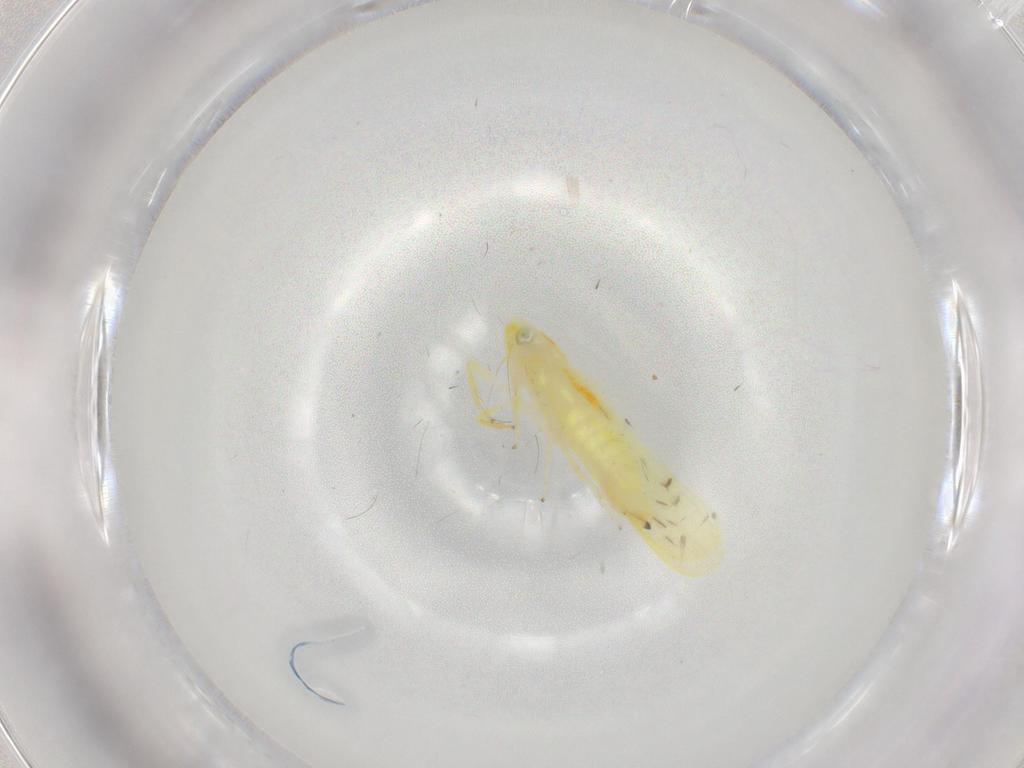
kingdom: Animalia
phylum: Arthropoda
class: Insecta
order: Hemiptera
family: Cicadellidae
